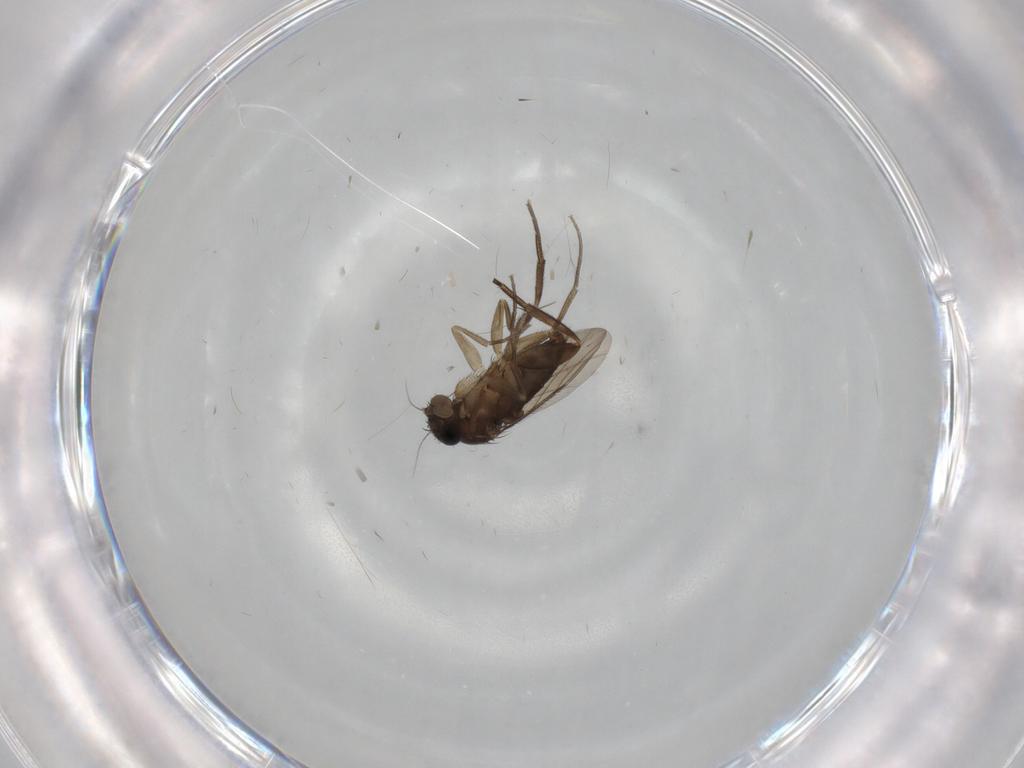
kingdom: Animalia
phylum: Arthropoda
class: Insecta
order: Diptera
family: Phoridae
